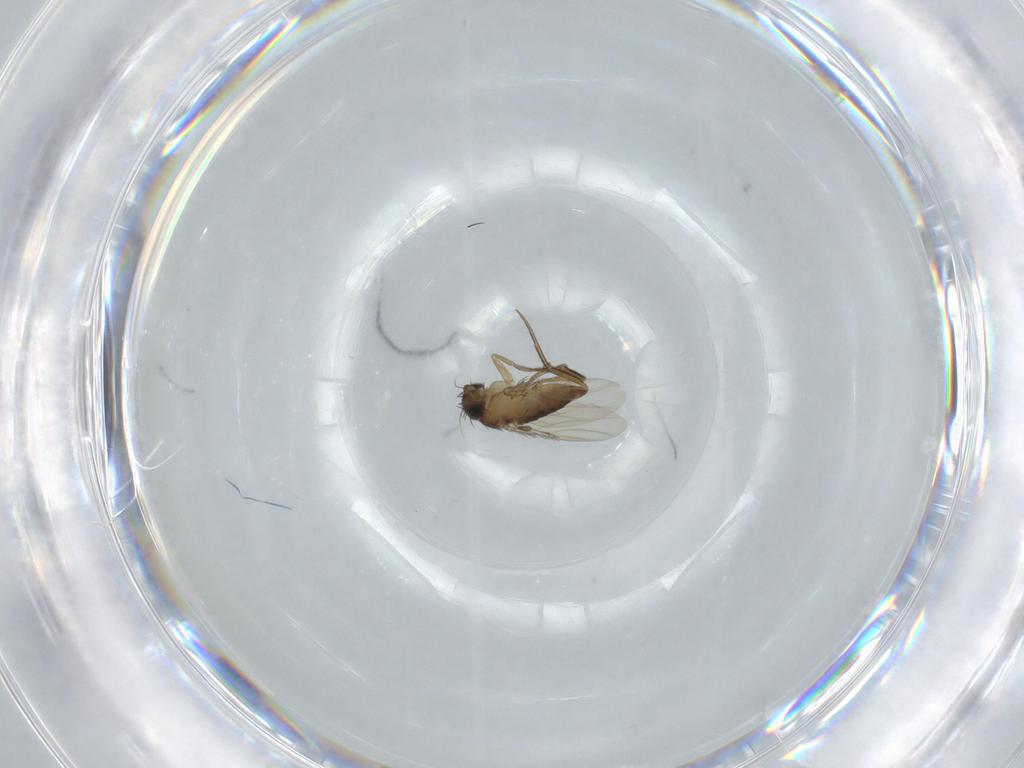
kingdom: Animalia
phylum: Arthropoda
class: Insecta
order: Diptera
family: Phoridae
